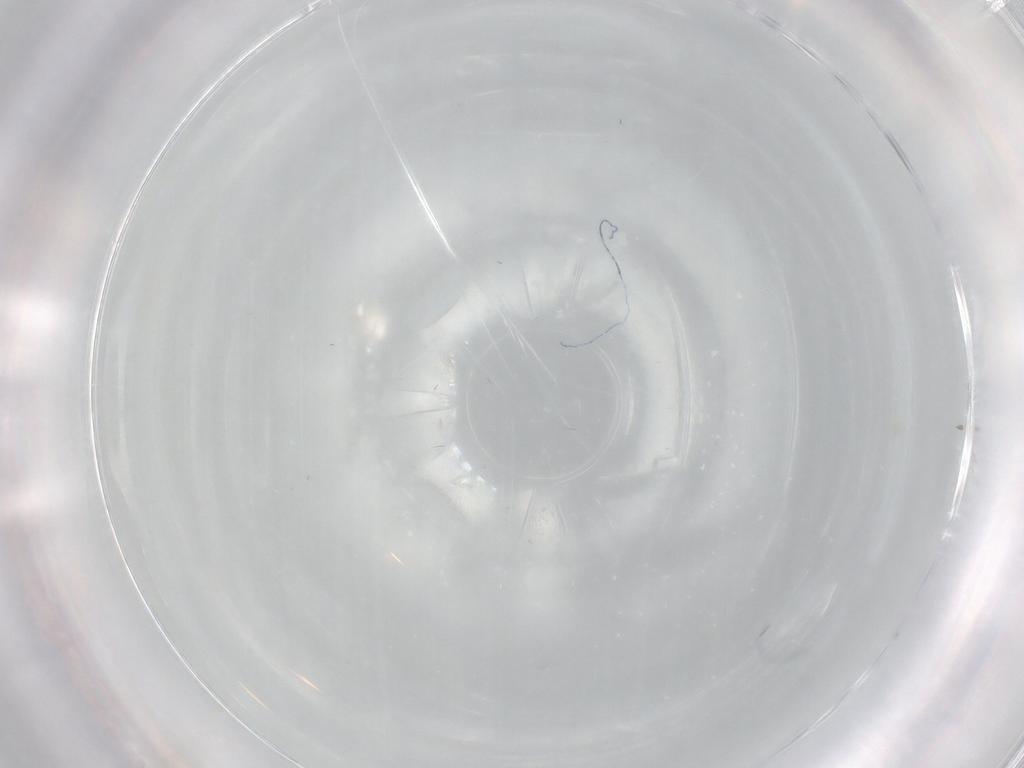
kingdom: Animalia
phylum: Arthropoda
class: Insecta
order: Diptera
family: Sphaeroceridae
